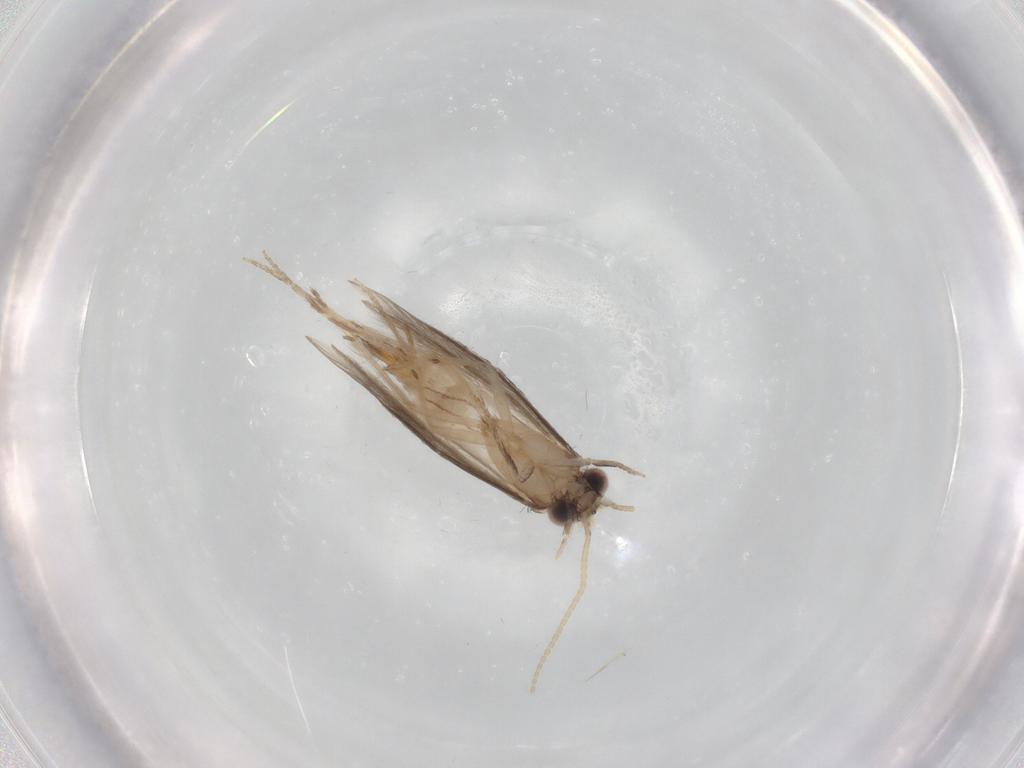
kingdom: Animalia
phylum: Arthropoda
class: Insecta
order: Trichoptera
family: Hydroptilidae
